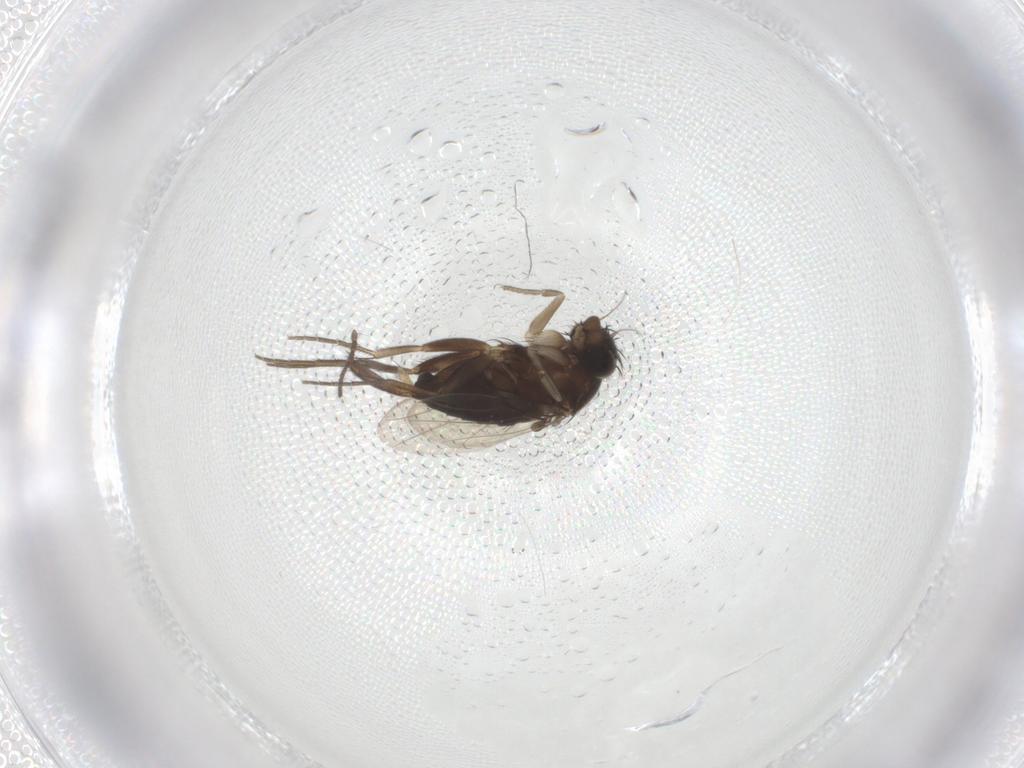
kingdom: Animalia
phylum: Arthropoda
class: Insecta
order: Diptera
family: Limoniidae
